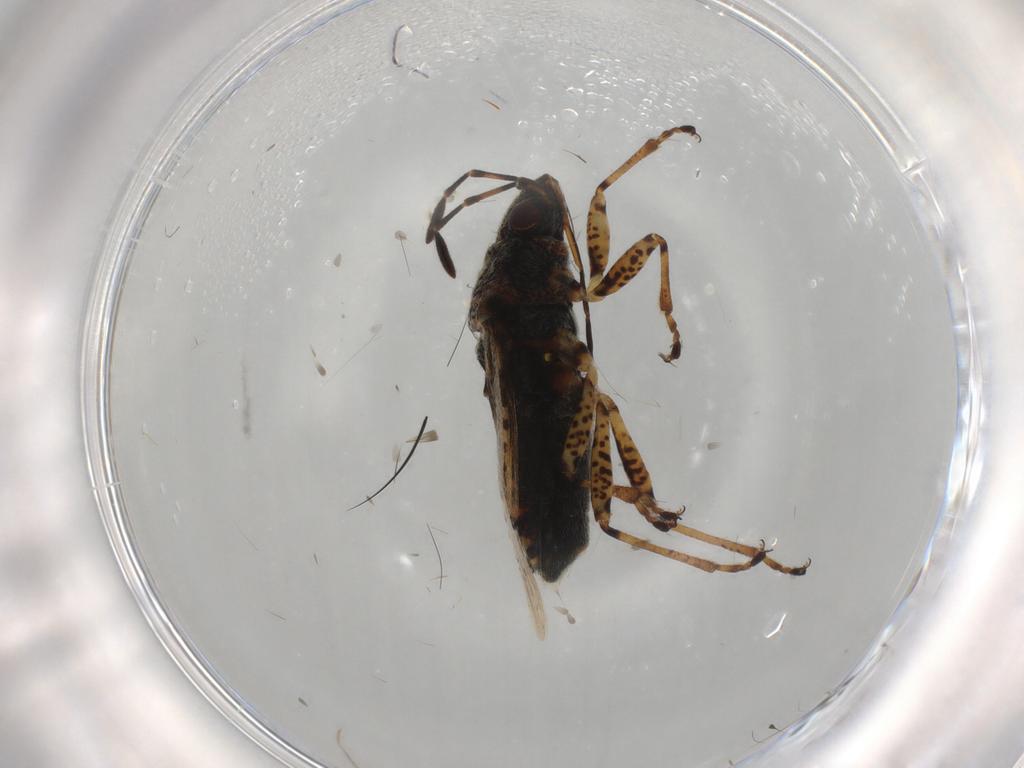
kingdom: Animalia
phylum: Arthropoda
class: Insecta
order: Hemiptera
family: Lygaeidae
